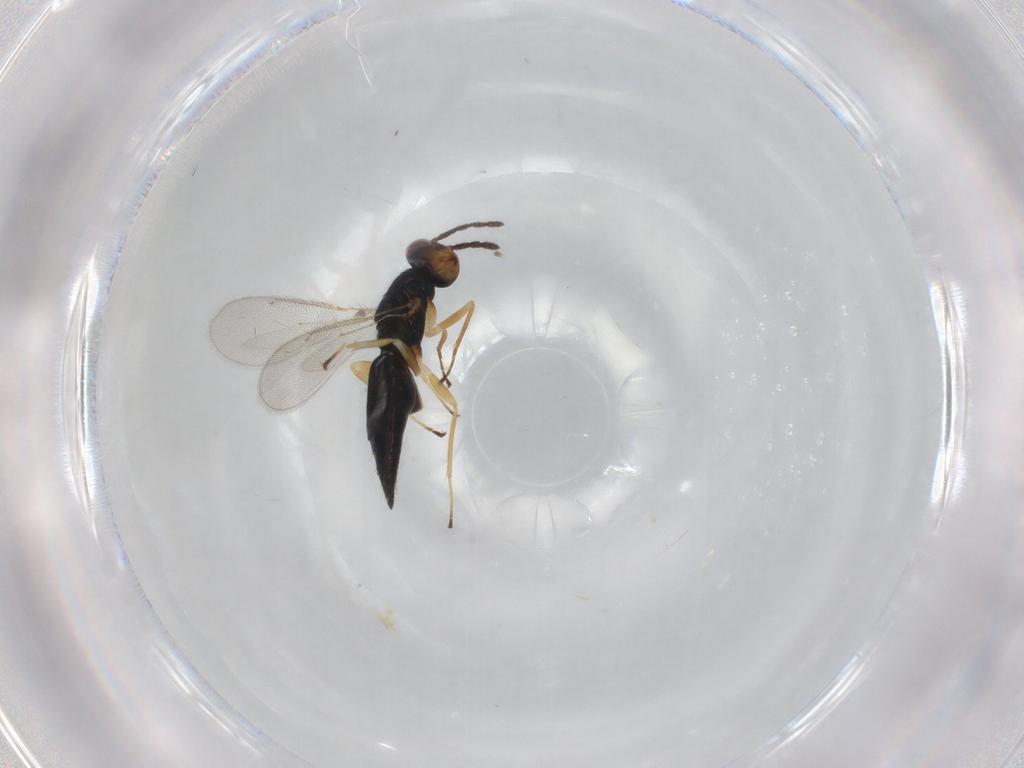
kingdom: Animalia
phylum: Arthropoda
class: Insecta
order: Hymenoptera
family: Eulophidae
